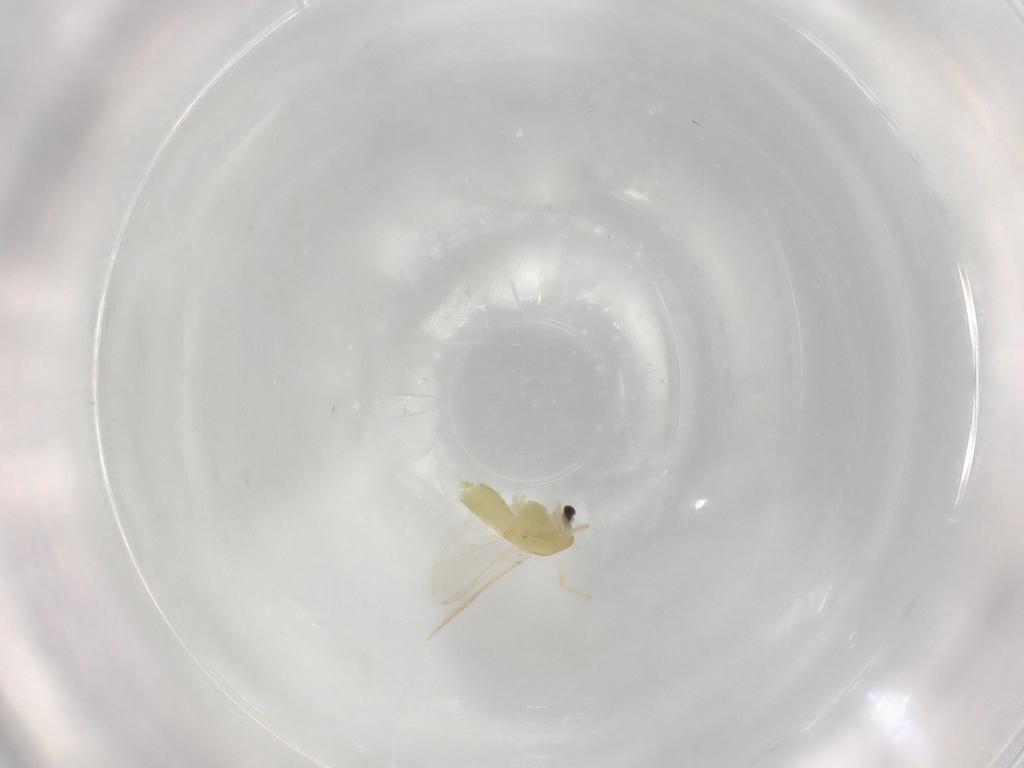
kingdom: Animalia
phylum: Arthropoda
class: Insecta
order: Diptera
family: Chironomidae
